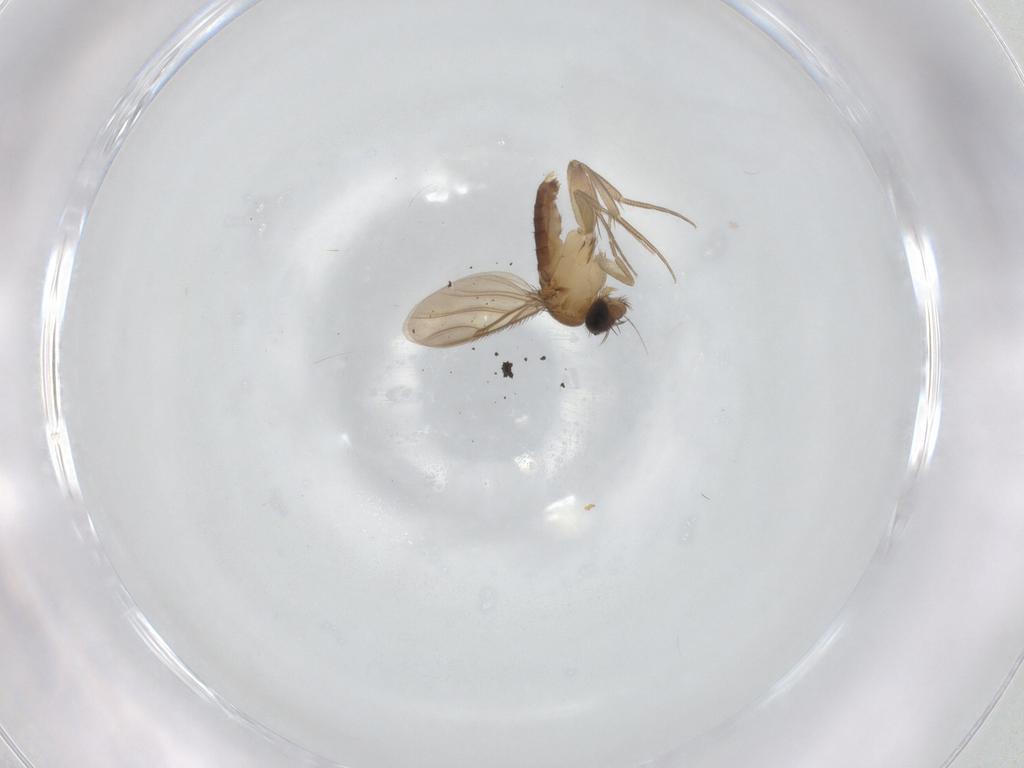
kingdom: Animalia
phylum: Arthropoda
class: Insecta
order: Diptera
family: Phoridae
